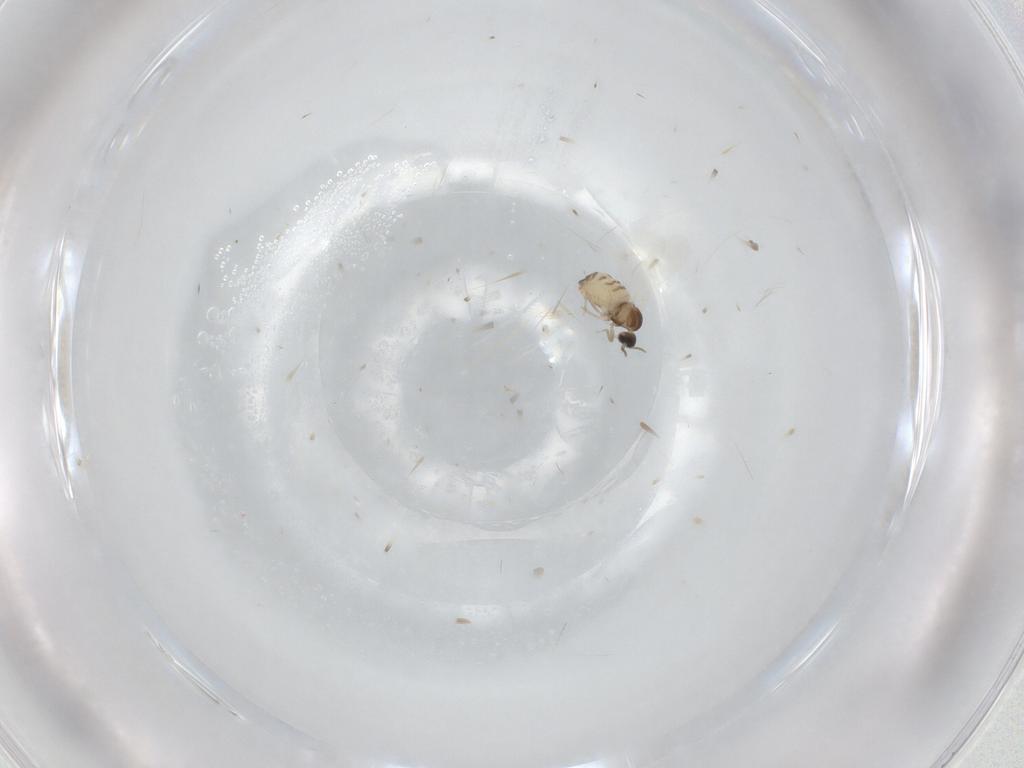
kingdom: Animalia
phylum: Arthropoda
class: Insecta
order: Diptera
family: Cecidomyiidae
